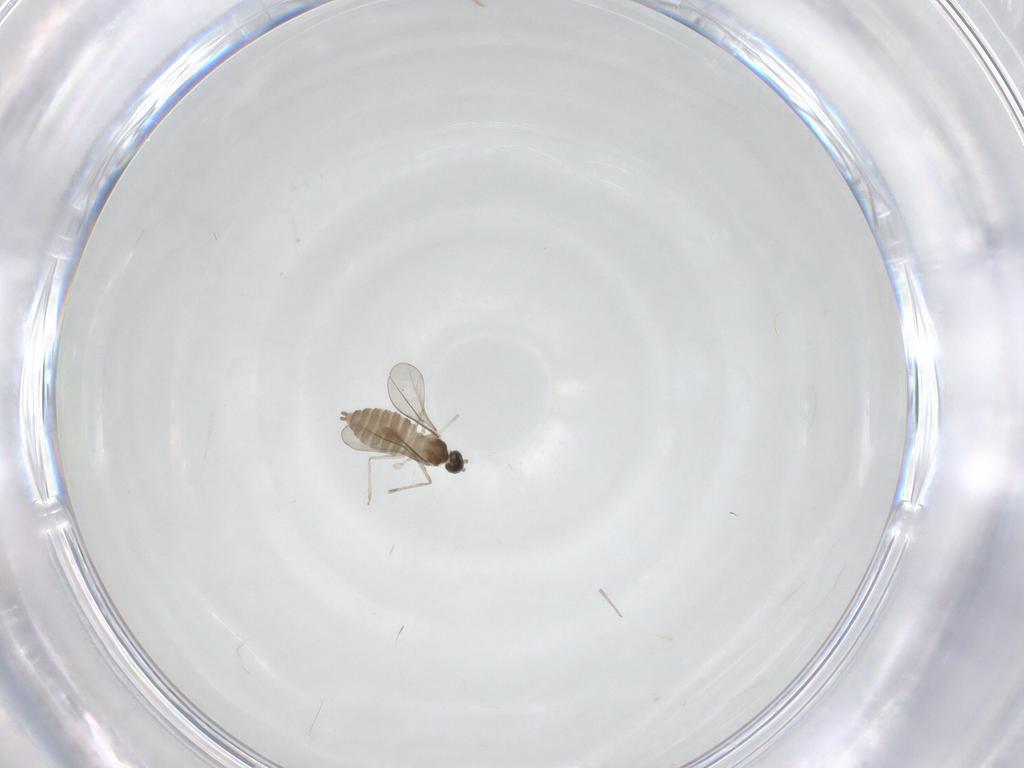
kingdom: Animalia
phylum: Arthropoda
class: Insecta
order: Diptera
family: Cecidomyiidae
